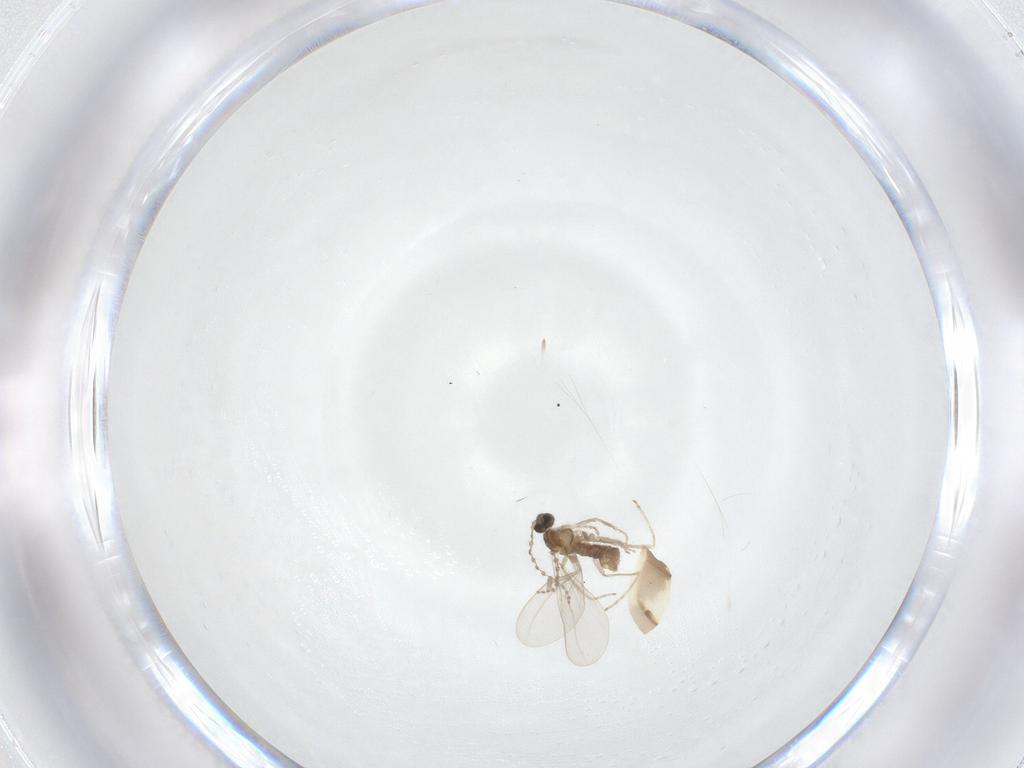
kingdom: Animalia
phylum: Arthropoda
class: Insecta
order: Diptera
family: Cecidomyiidae
